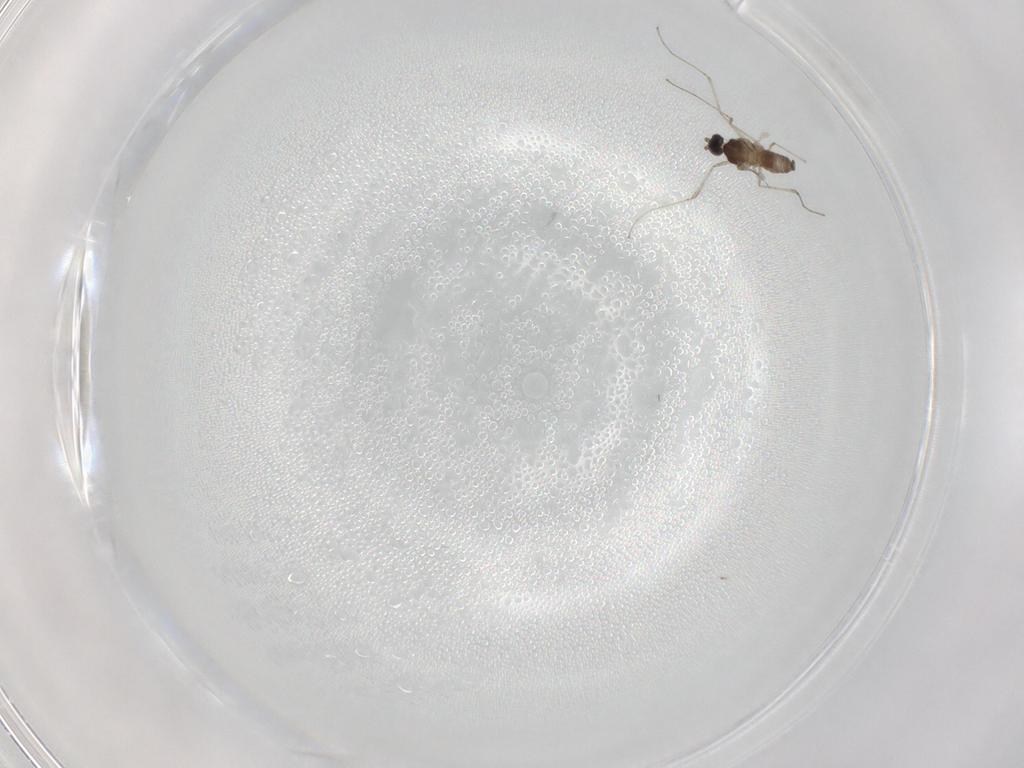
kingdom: Animalia
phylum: Arthropoda
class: Insecta
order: Diptera
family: Cecidomyiidae
